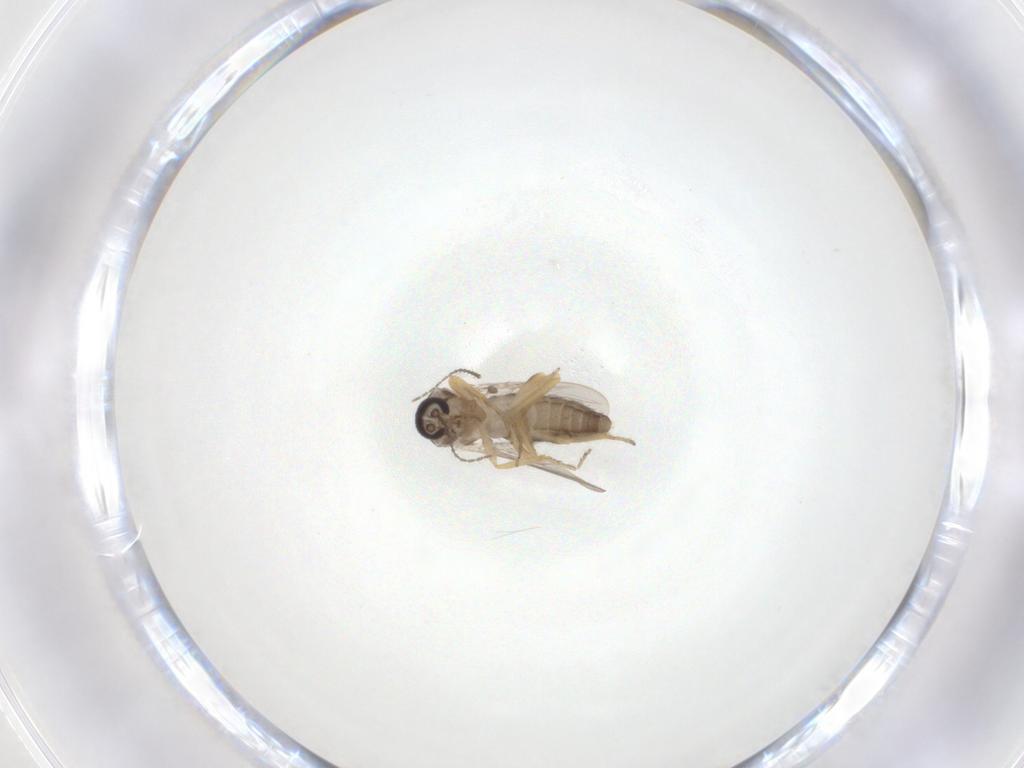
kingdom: Animalia
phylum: Arthropoda
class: Insecta
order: Diptera
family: Ceratopogonidae
